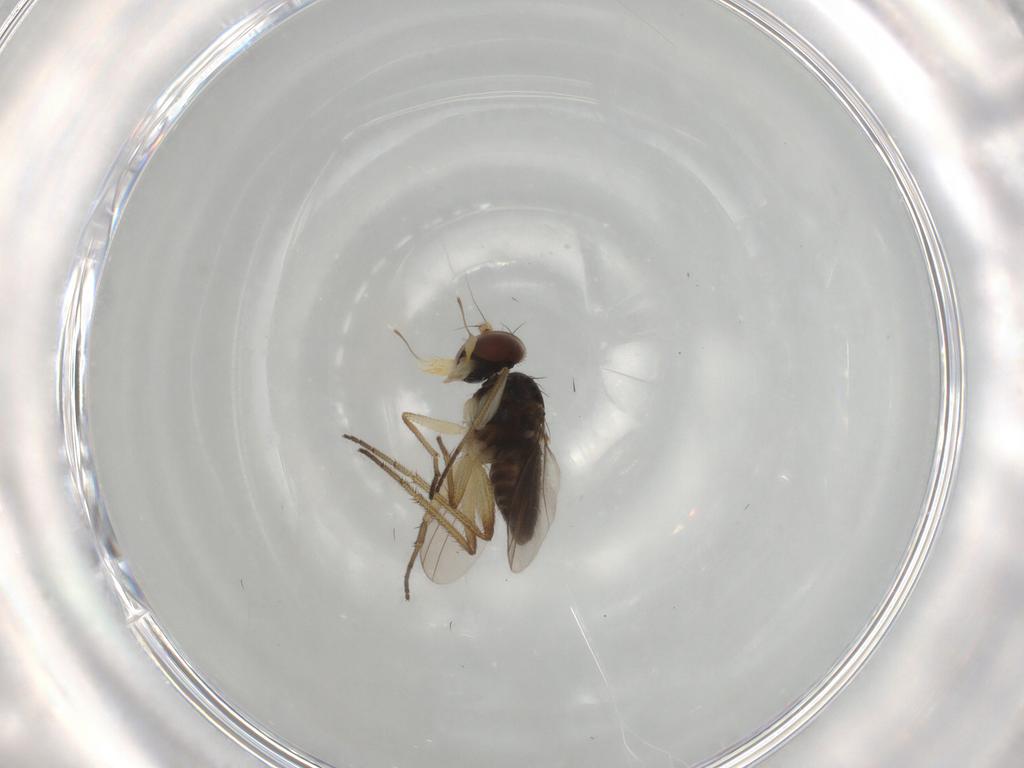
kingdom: Animalia
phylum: Arthropoda
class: Insecta
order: Diptera
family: Dolichopodidae
